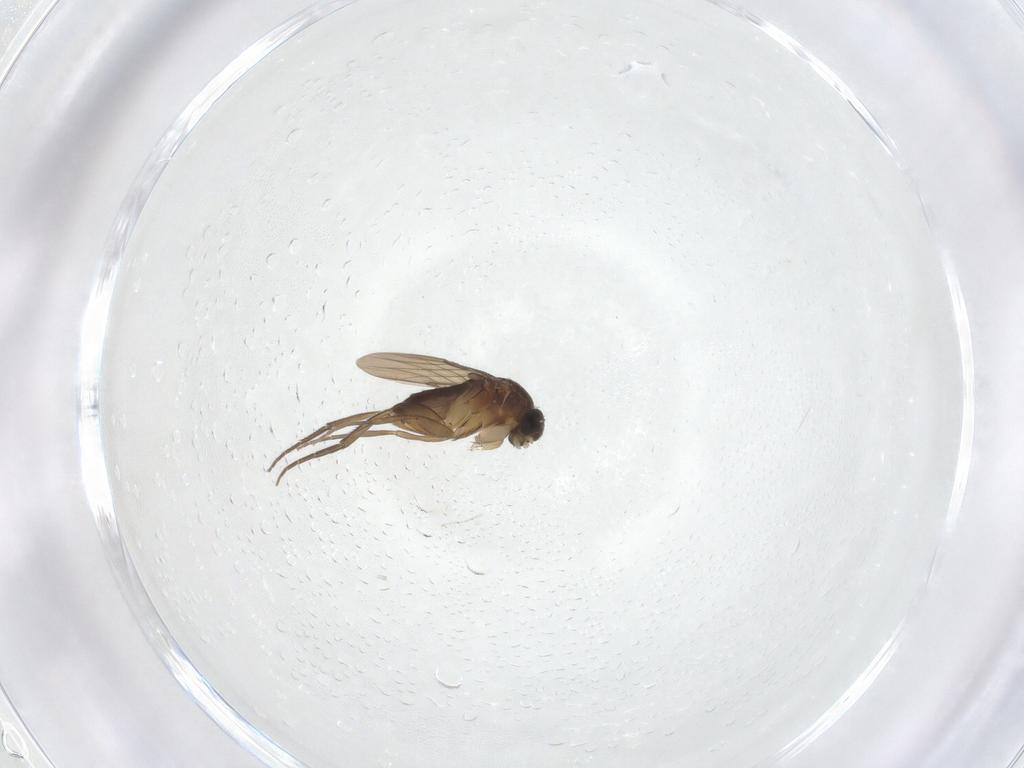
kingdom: Animalia
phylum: Arthropoda
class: Insecta
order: Diptera
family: Phoridae
